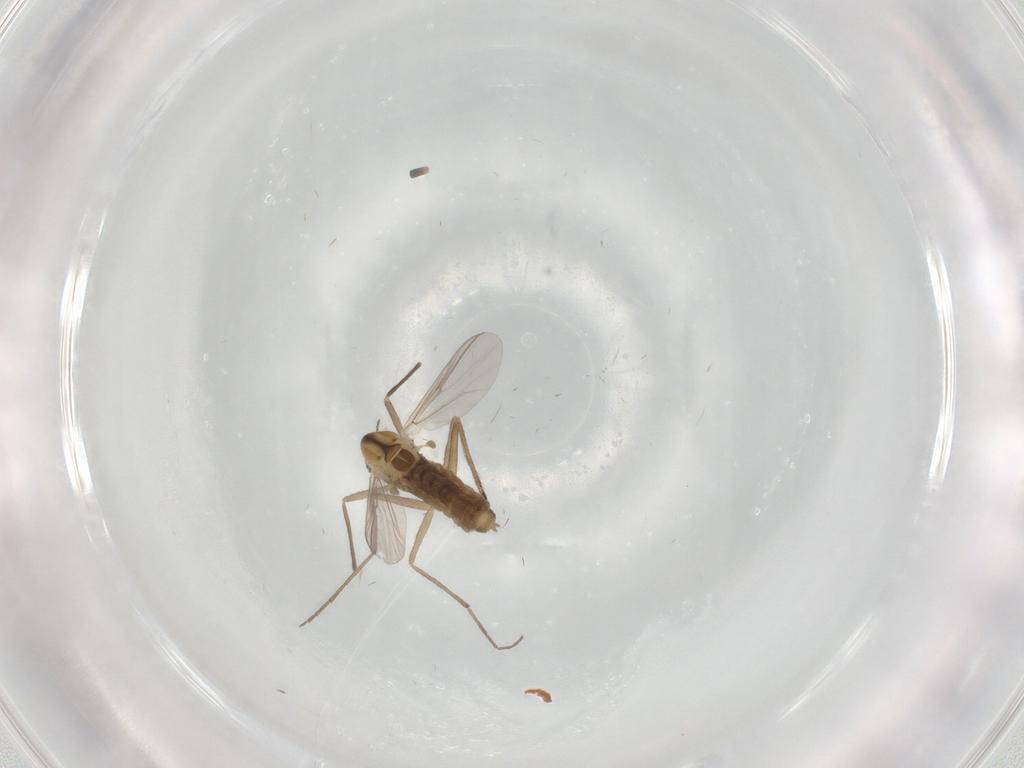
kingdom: Animalia
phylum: Arthropoda
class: Insecta
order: Diptera
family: Chironomidae
